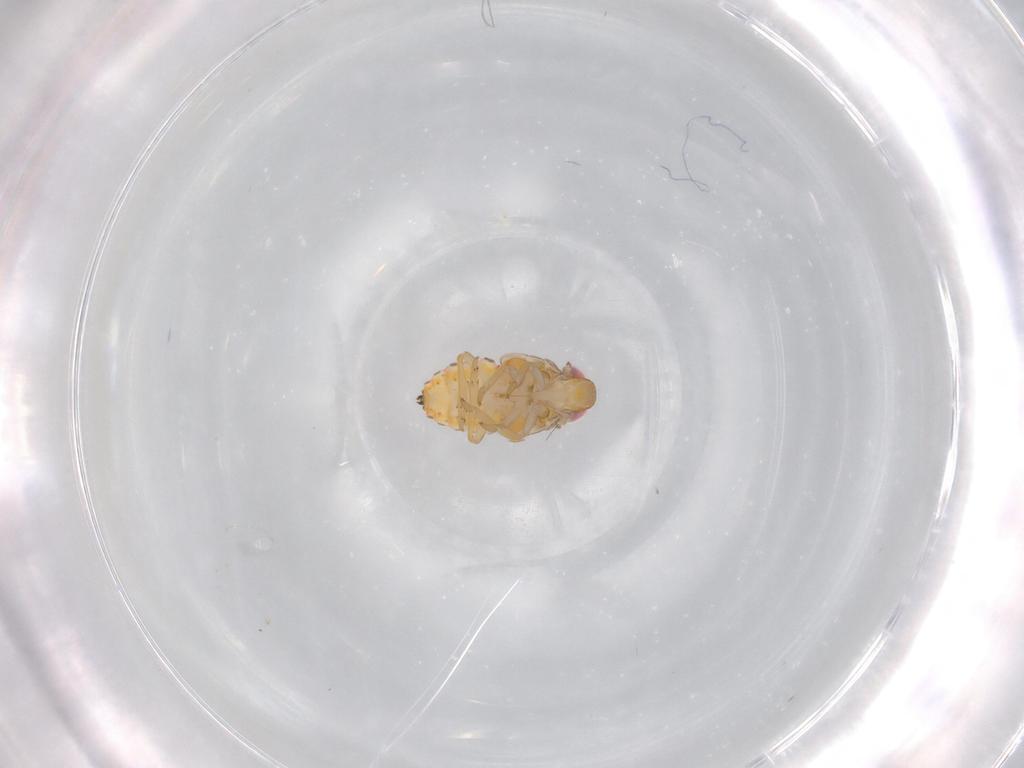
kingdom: Animalia
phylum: Arthropoda
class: Insecta
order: Hemiptera
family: Issidae
